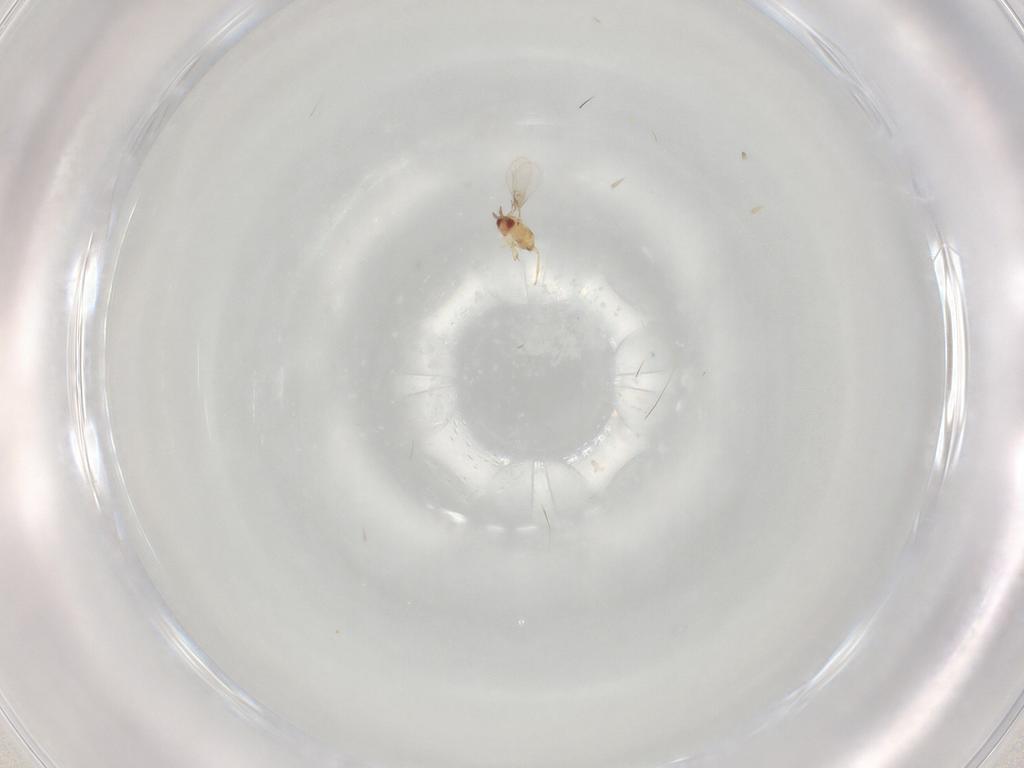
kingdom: Animalia
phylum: Arthropoda
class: Insecta
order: Hymenoptera
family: Trichogrammatidae
